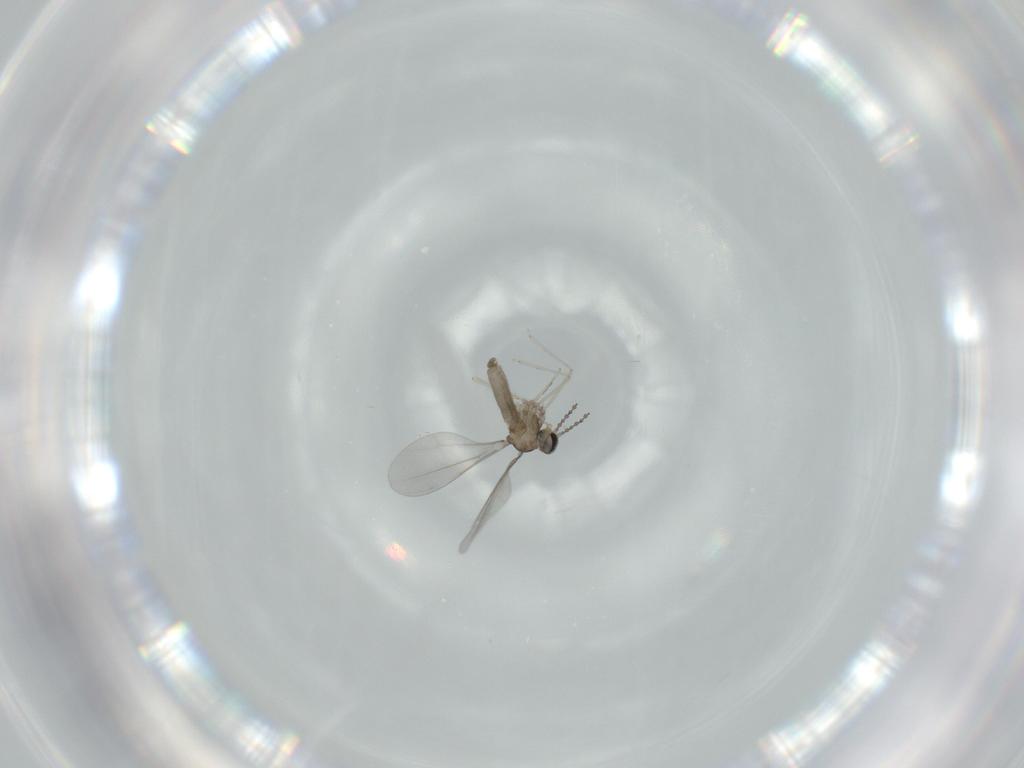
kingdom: Animalia
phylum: Arthropoda
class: Insecta
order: Diptera
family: Cecidomyiidae
